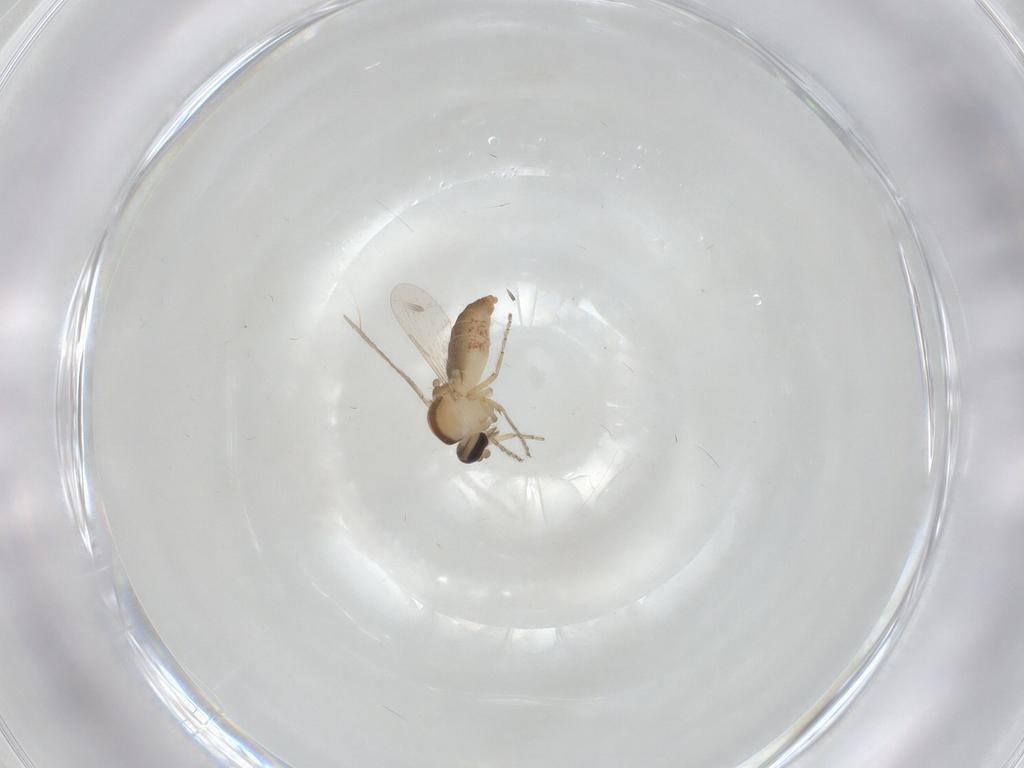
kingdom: Animalia
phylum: Arthropoda
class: Insecta
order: Diptera
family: Ceratopogonidae
